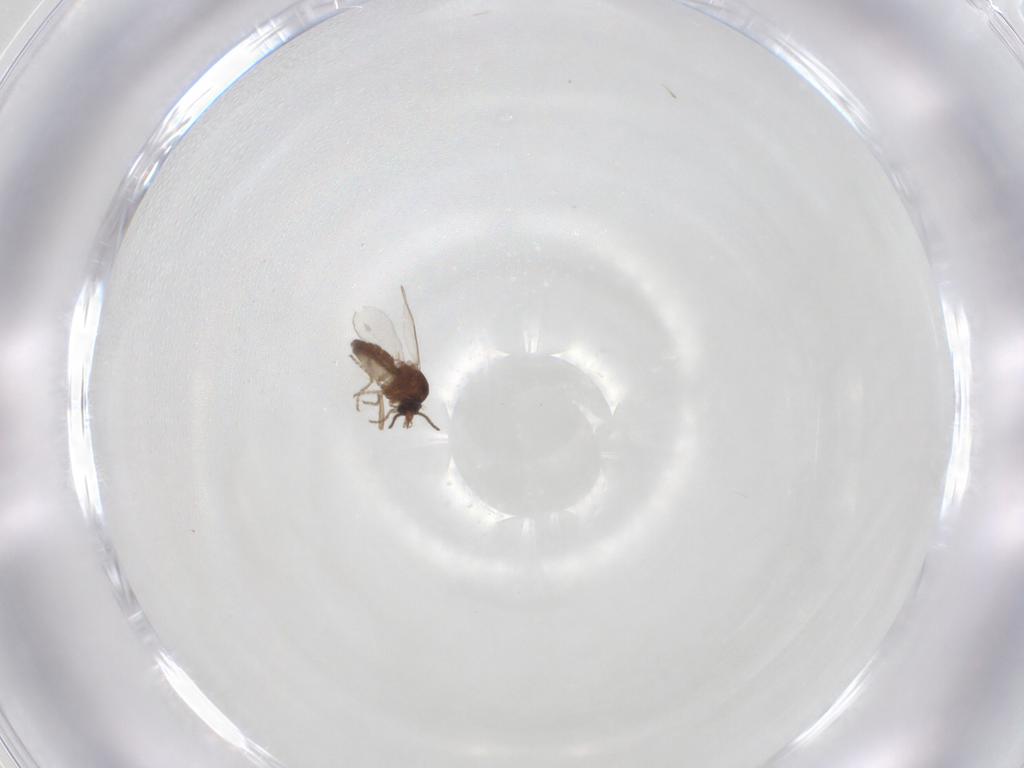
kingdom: Animalia
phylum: Arthropoda
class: Insecta
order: Diptera
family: Ceratopogonidae
